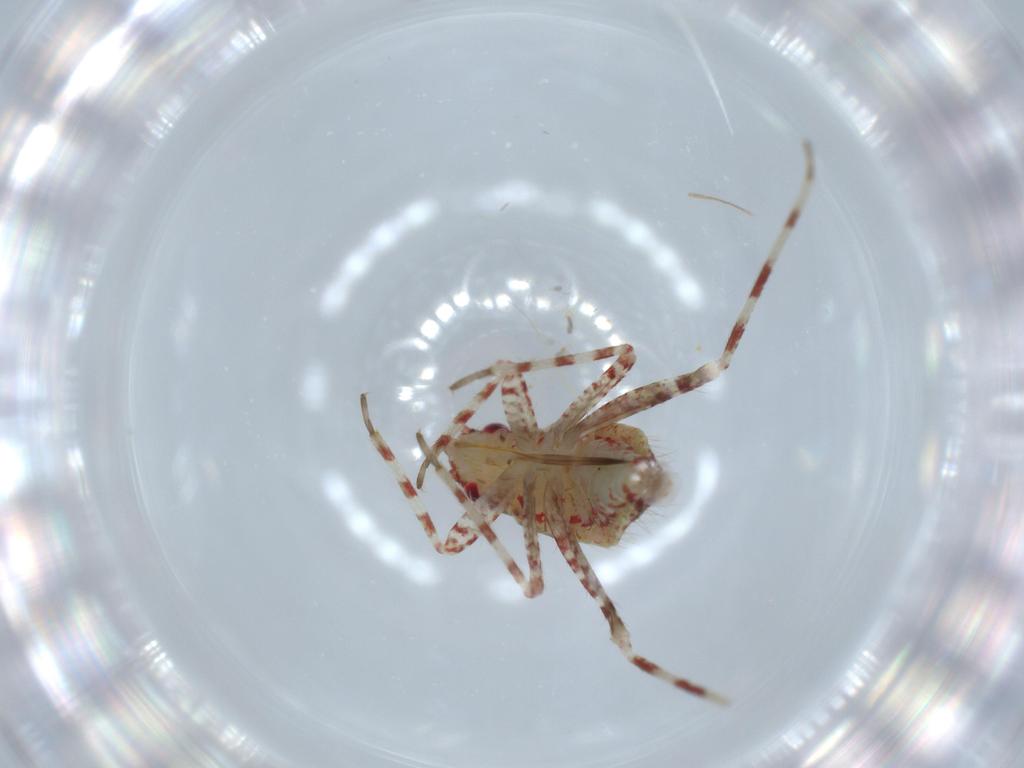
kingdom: Animalia
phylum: Arthropoda
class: Insecta
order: Hemiptera
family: Miridae
